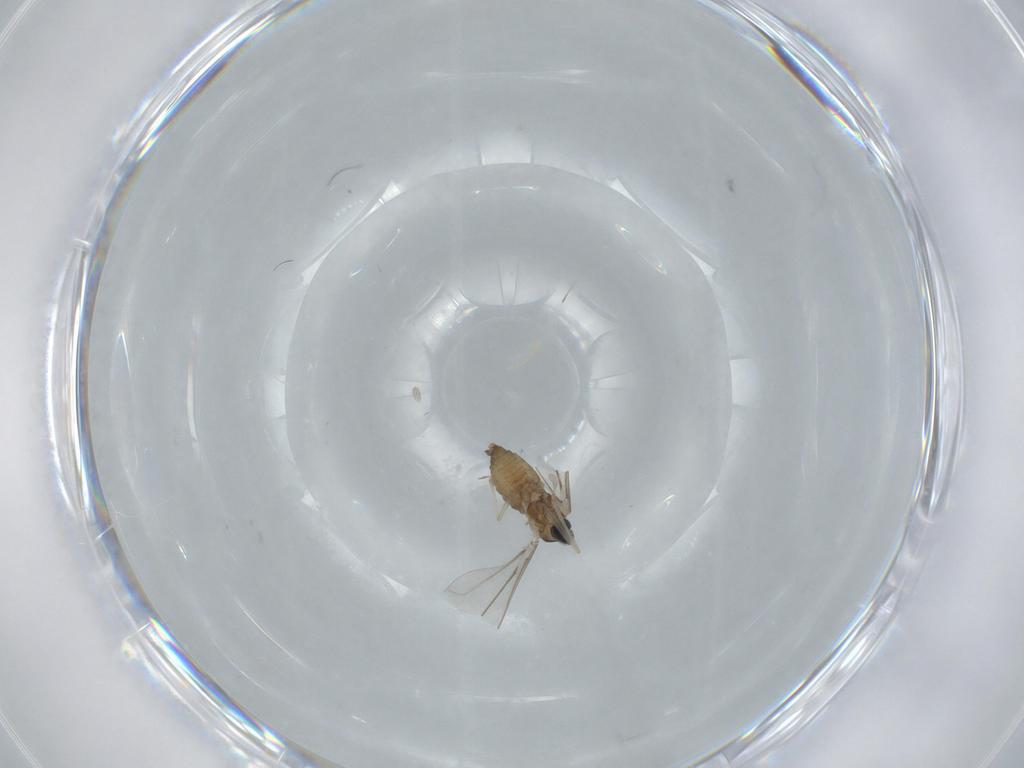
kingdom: Animalia
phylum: Arthropoda
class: Insecta
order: Diptera
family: Cecidomyiidae
